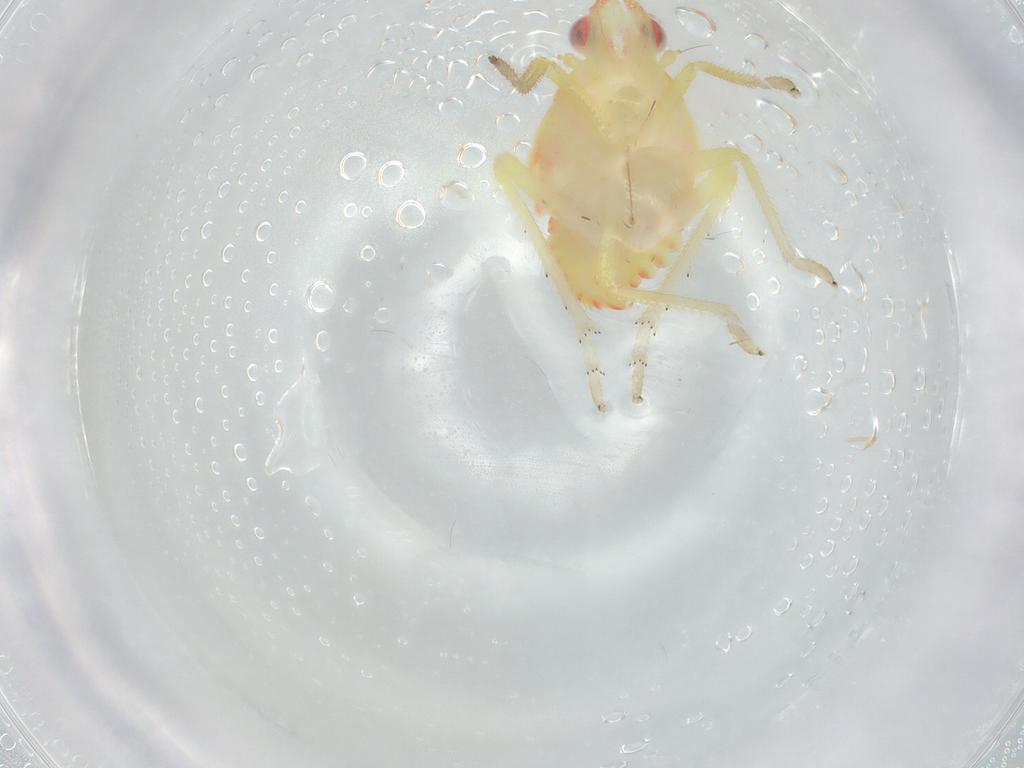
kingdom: Animalia
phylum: Arthropoda
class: Insecta
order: Hemiptera
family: Tropiduchidae
